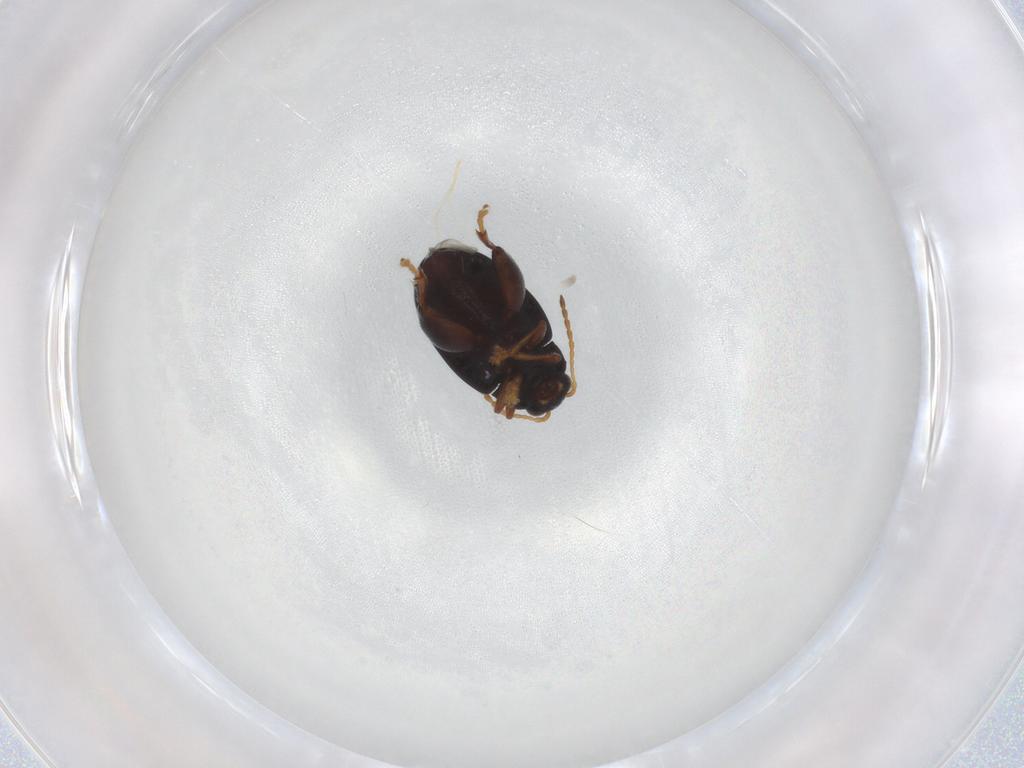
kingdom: Animalia
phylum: Arthropoda
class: Insecta
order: Coleoptera
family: Chrysomelidae
